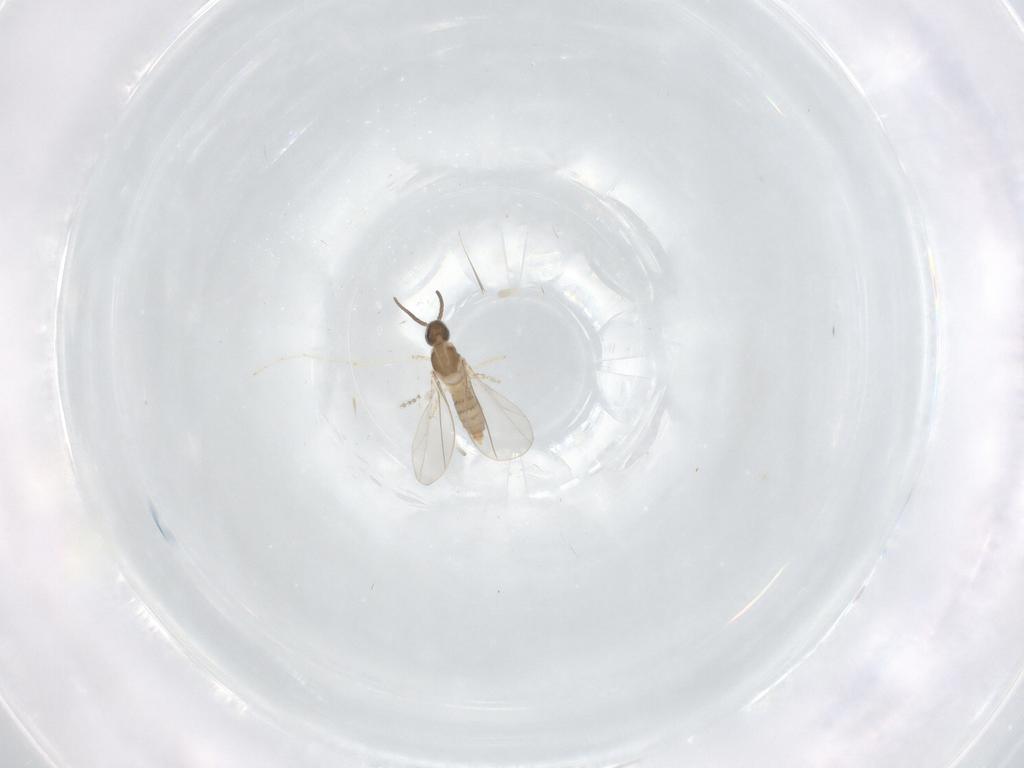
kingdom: Animalia
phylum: Arthropoda
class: Insecta
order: Diptera
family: Cecidomyiidae
